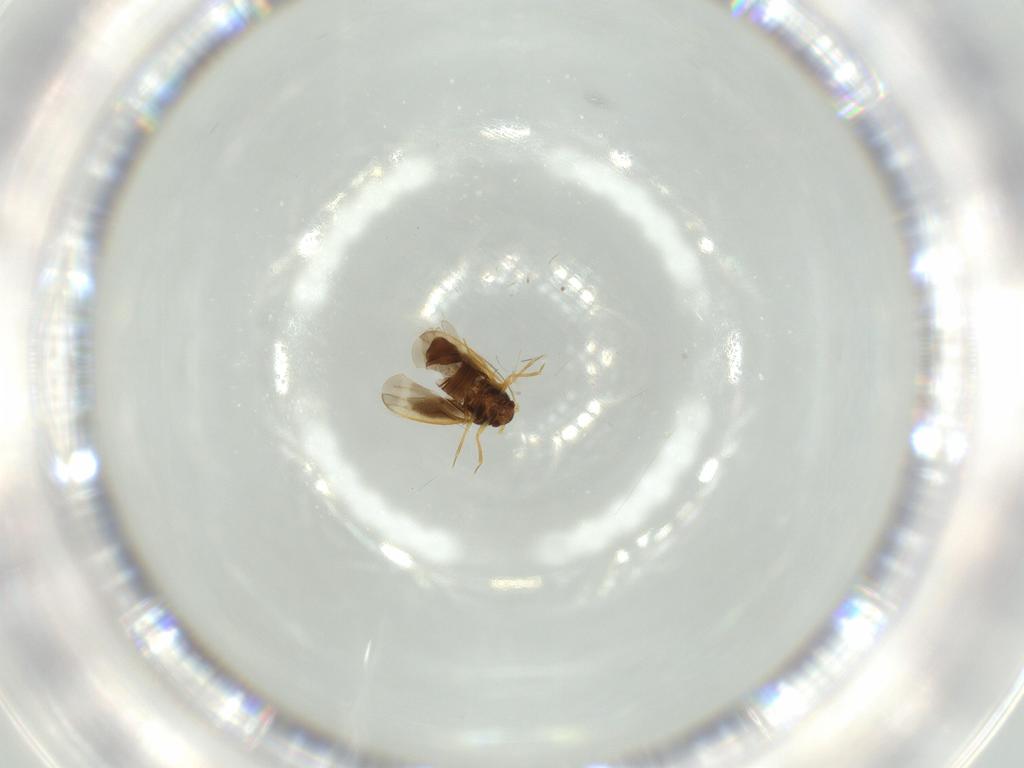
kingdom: Animalia
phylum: Arthropoda
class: Insecta
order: Hemiptera
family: Schizopteridae
